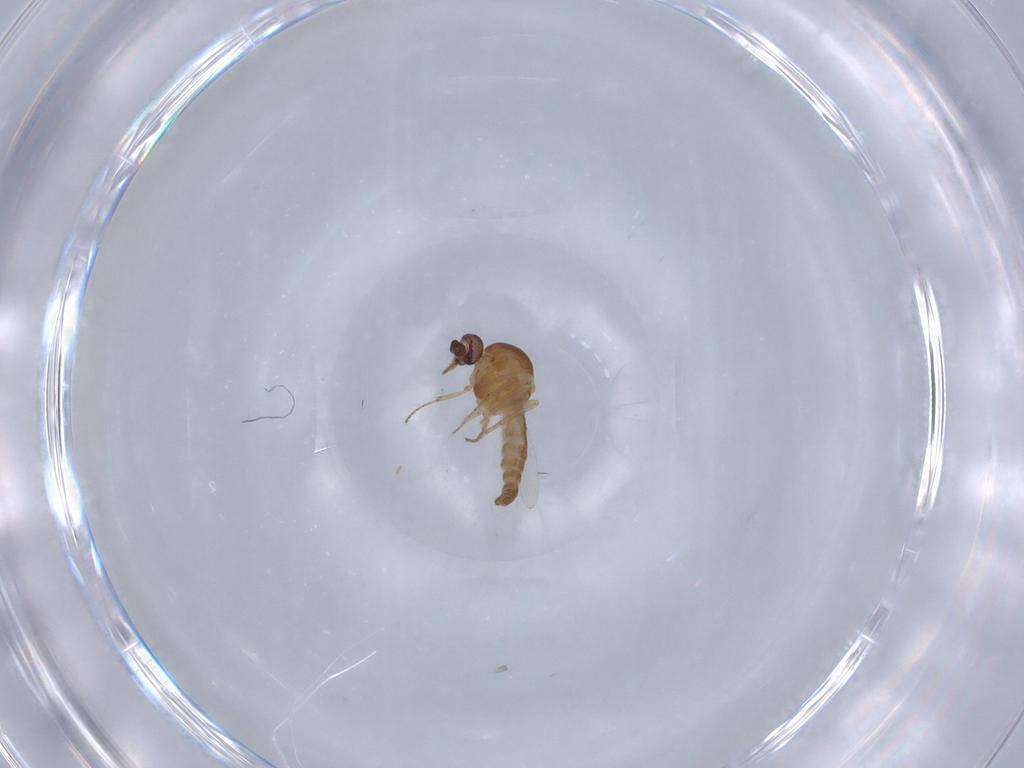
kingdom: Animalia
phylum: Arthropoda
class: Insecta
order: Diptera
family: Ceratopogonidae
